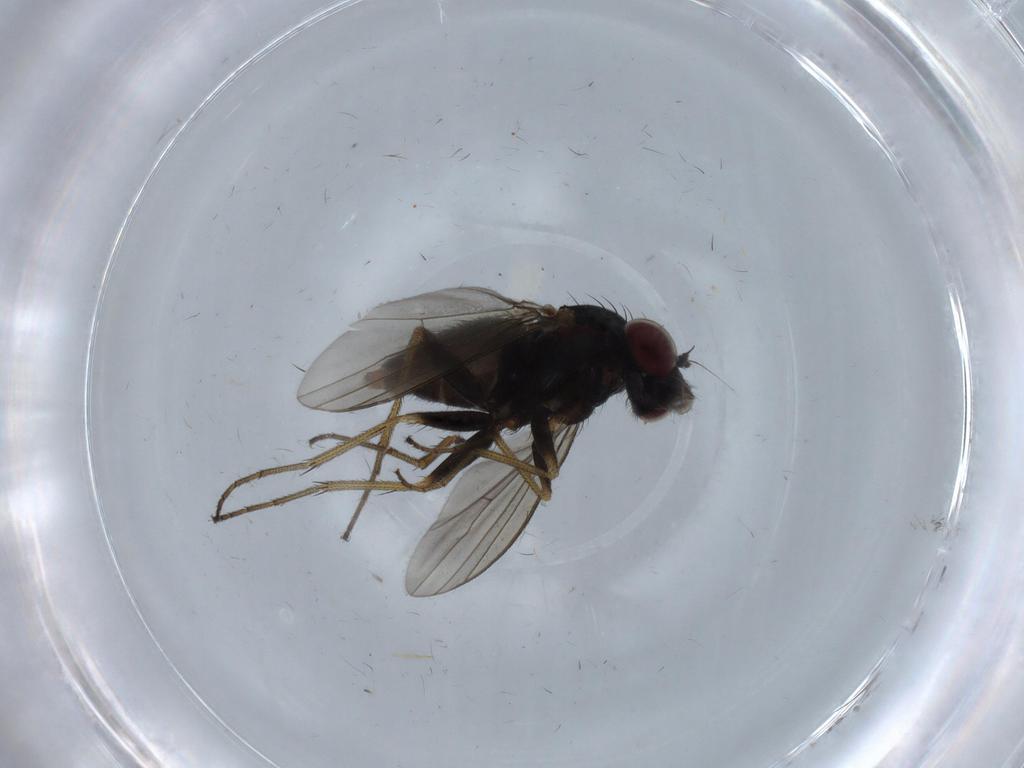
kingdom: Animalia
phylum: Arthropoda
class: Insecta
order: Diptera
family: Dolichopodidae
